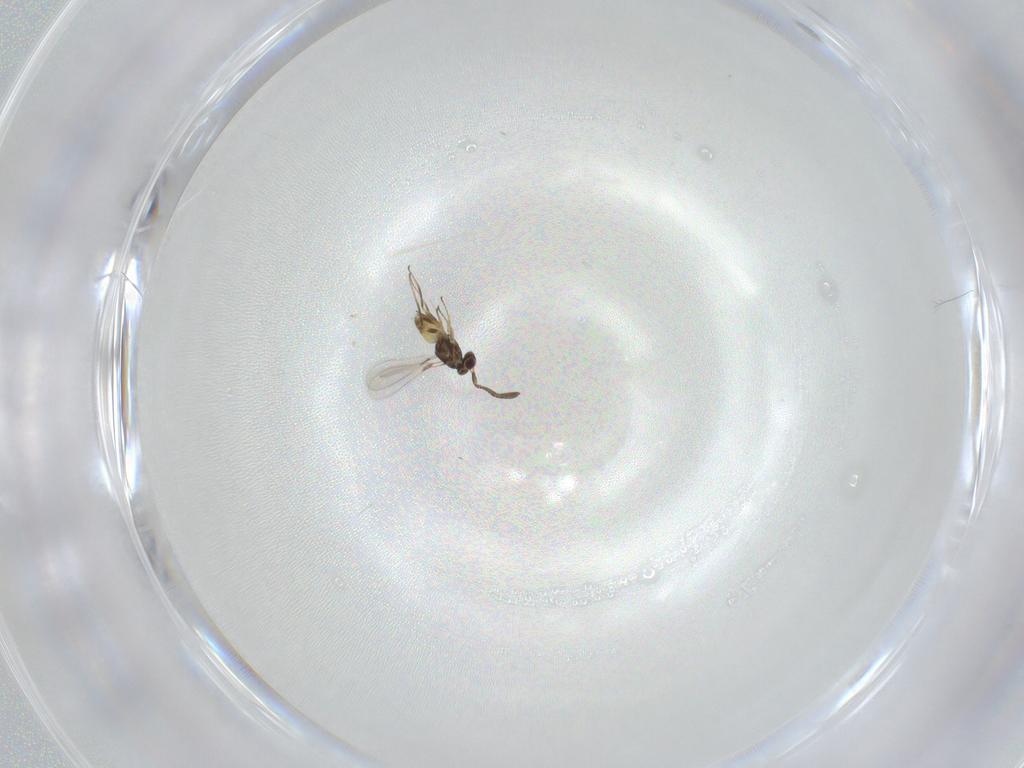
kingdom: Animalia
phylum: Arthropoda
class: Insecta
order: Hymenoptera
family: Mymaridae
